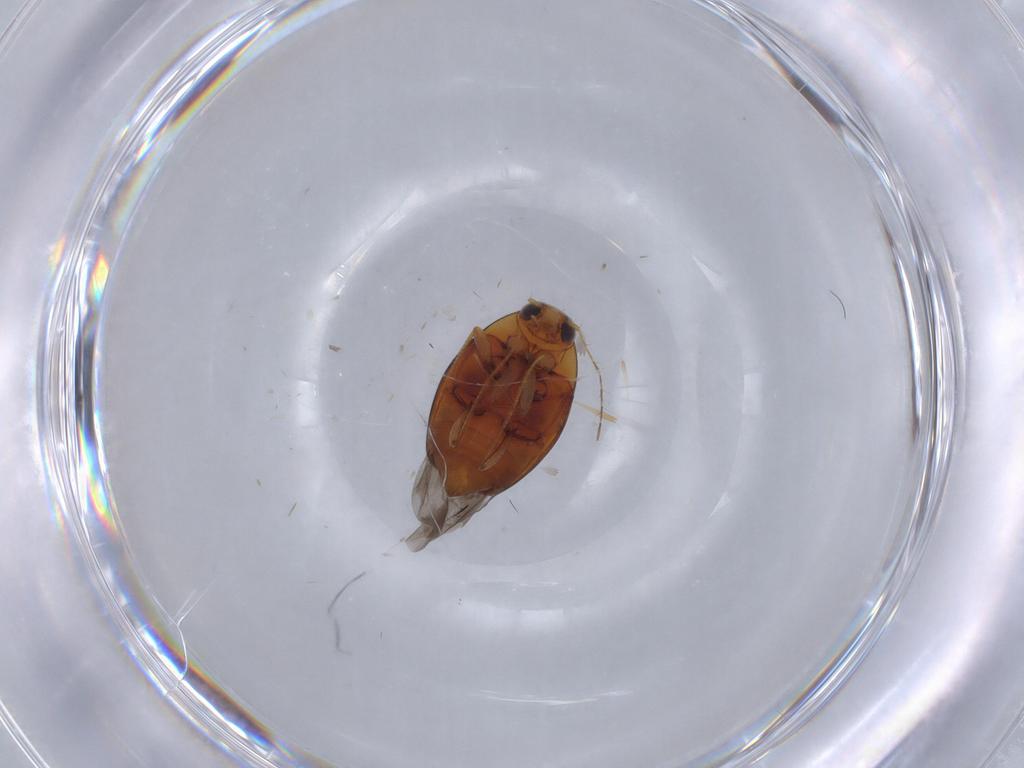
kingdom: Animalia
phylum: Arthropoda
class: Insecta
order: Coleoptera
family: Staphylinidae
